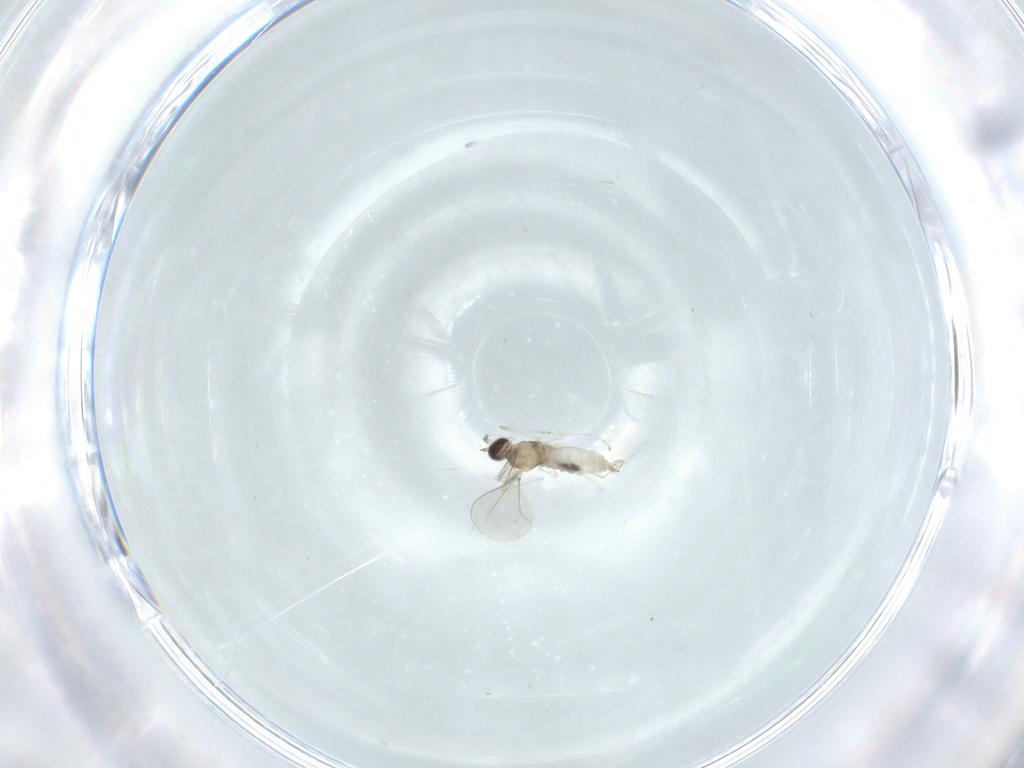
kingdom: Animalia
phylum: Arthropoda
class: Insecta
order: Diptera
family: Cecidomyiidae
